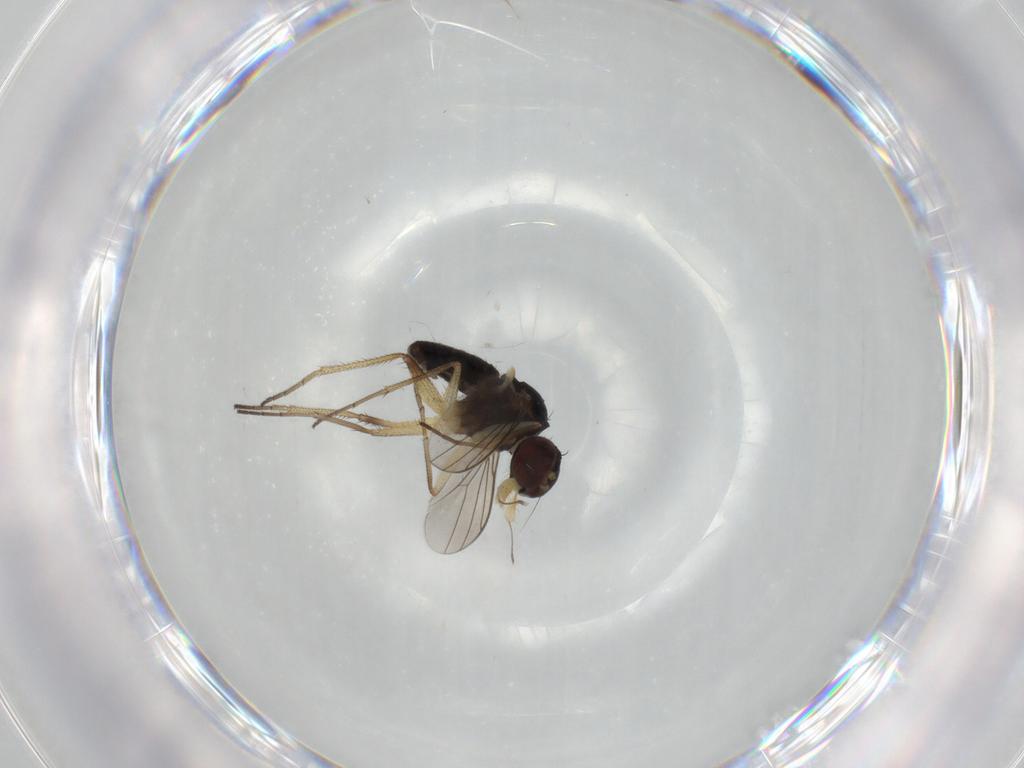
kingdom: Animalia
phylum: Arthropoda
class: Insecta
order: Diptera
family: Dolichopodidae
